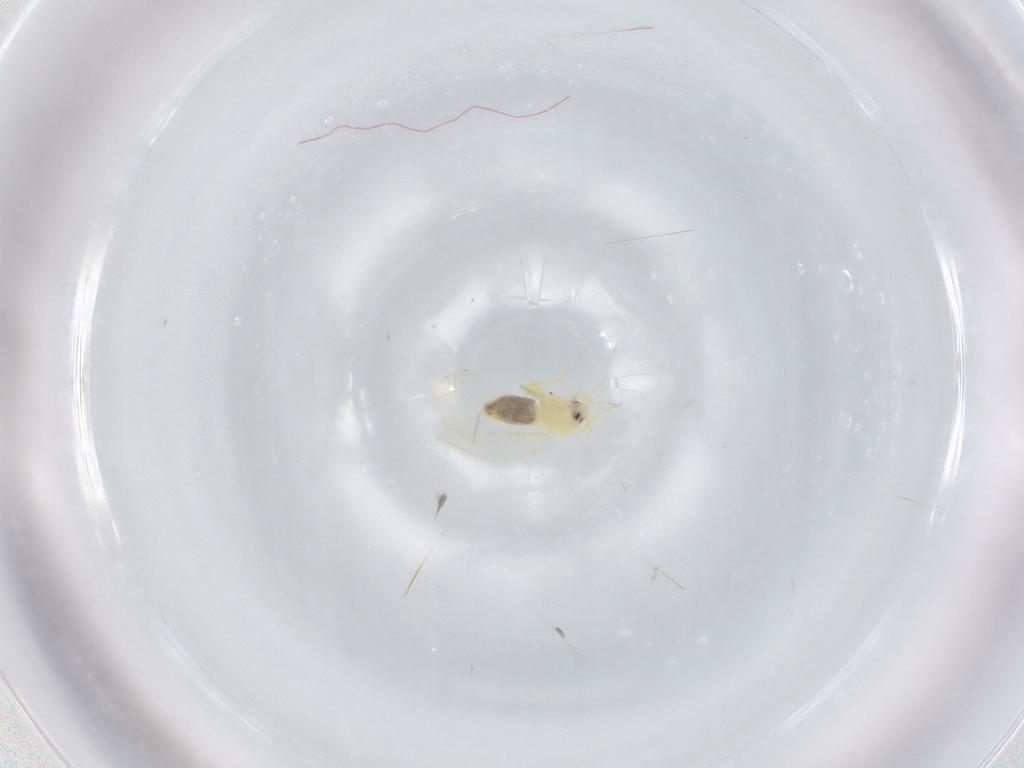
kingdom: Animalia
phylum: Arthropoda
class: Insecta
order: Hemiptera
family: Aleyrodidae
